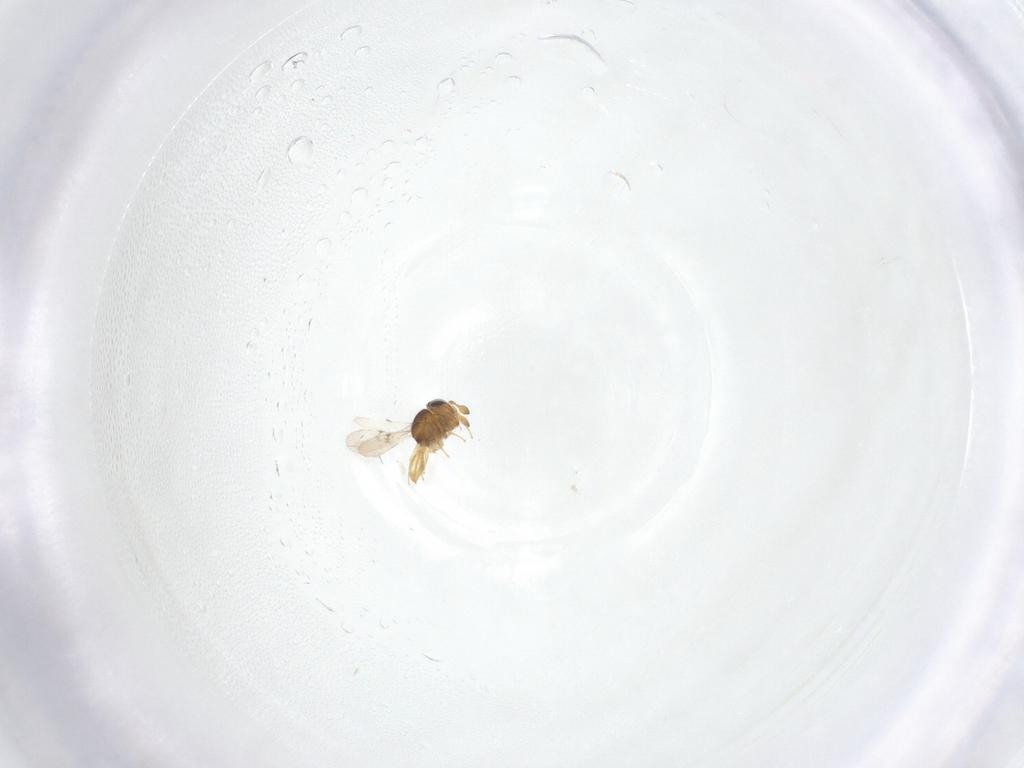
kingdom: Animalia
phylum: Arthropoda
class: Insecta
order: Hymenoptera
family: Scelionidae
